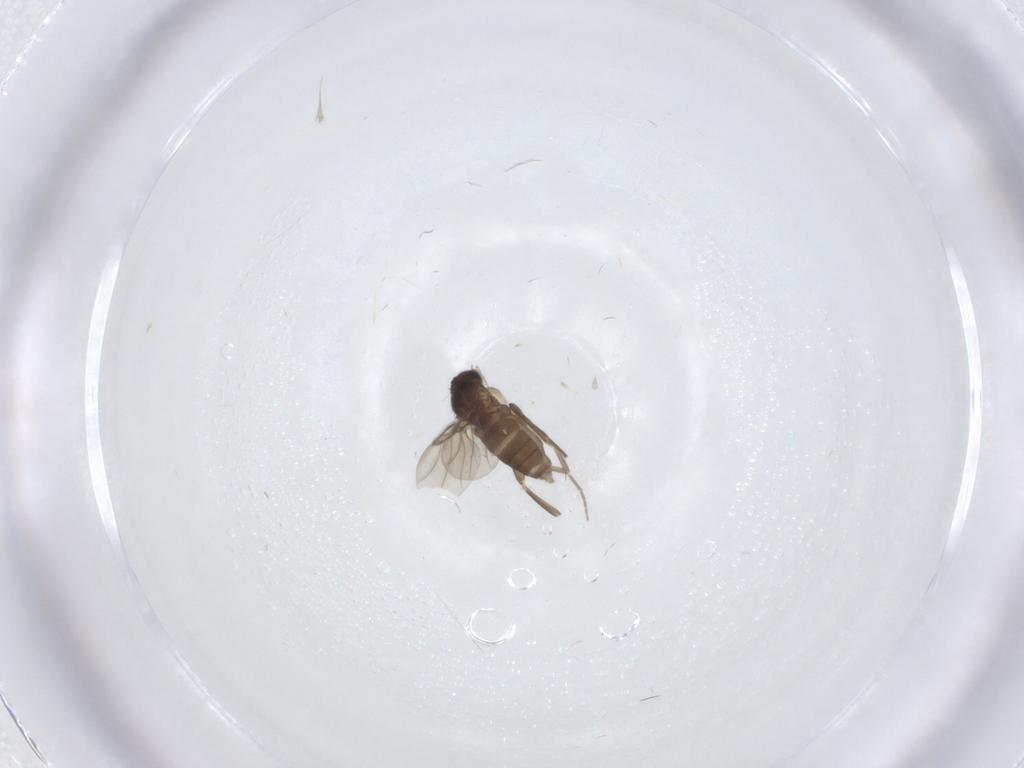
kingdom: Animalia
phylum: Arthropoda
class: Insecta
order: Diptera
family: Phoridae
